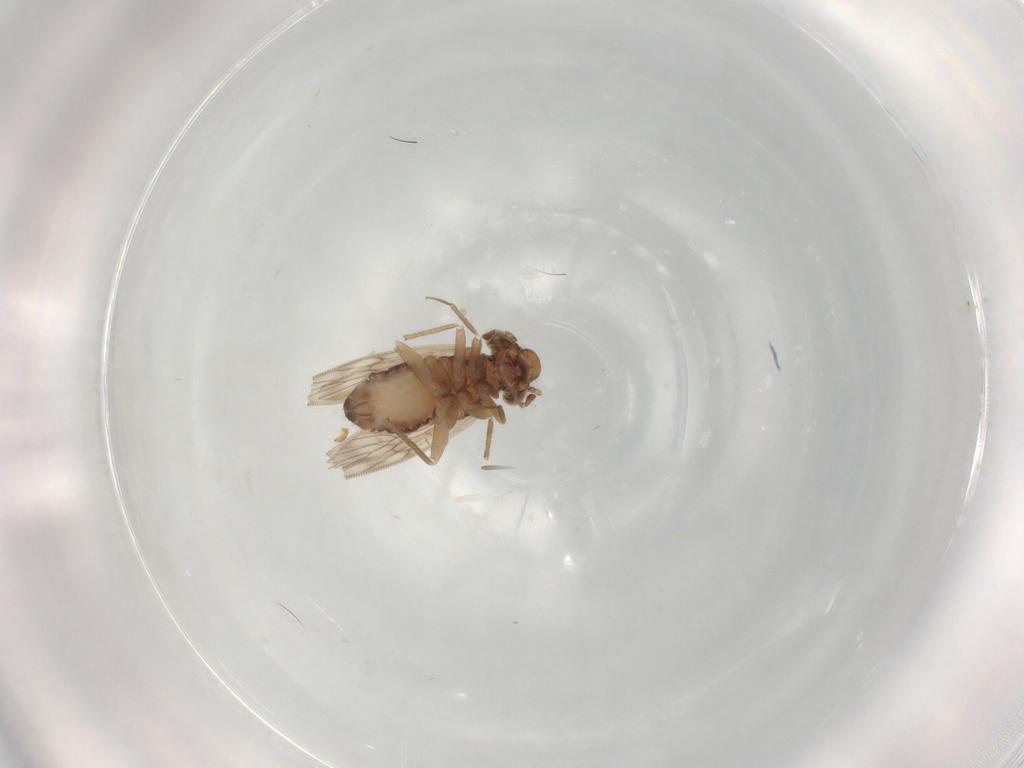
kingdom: Animalia
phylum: Arthropoda
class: Insecta
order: Psocodea
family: Lepidopsocidae
